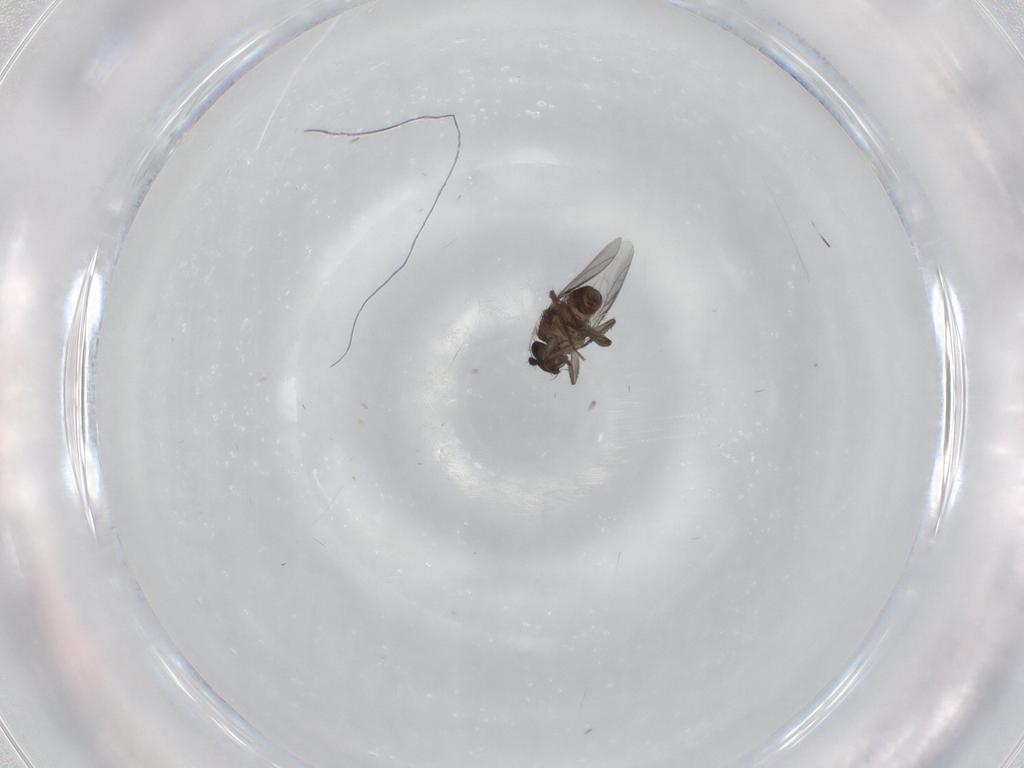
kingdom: Animalia
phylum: Arthropoda
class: Insecta
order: Diptera
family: Sphaeroceridae
